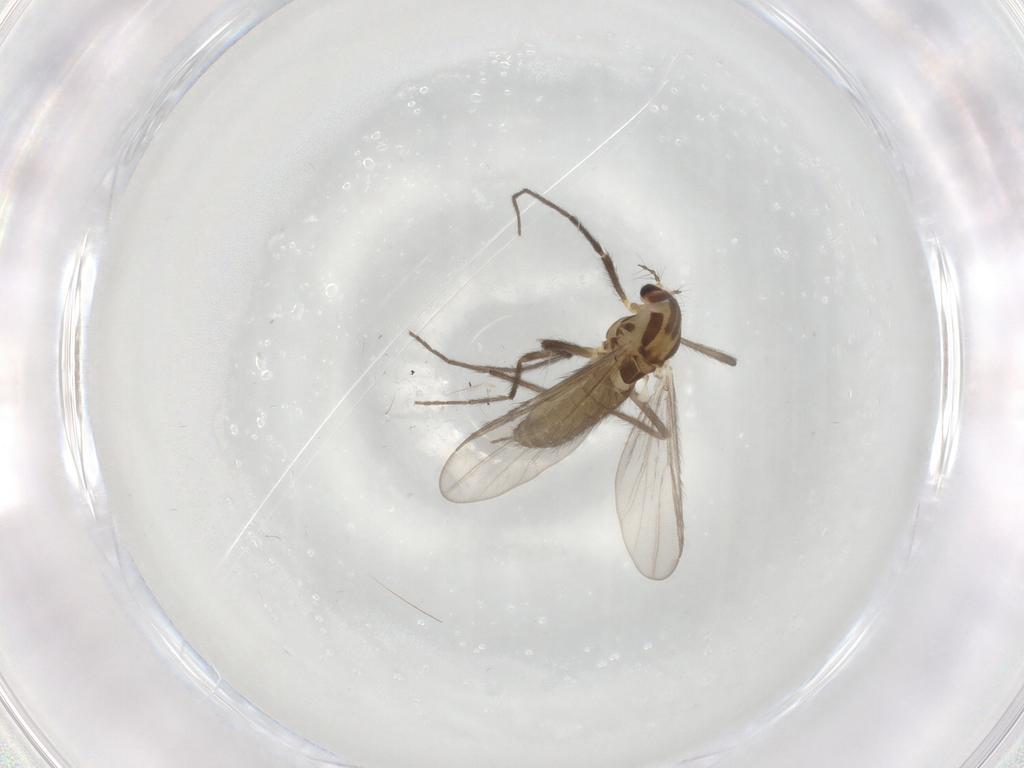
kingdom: Animalia
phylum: Arthropoda
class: Insecta
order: Diptera
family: Chironomidae
